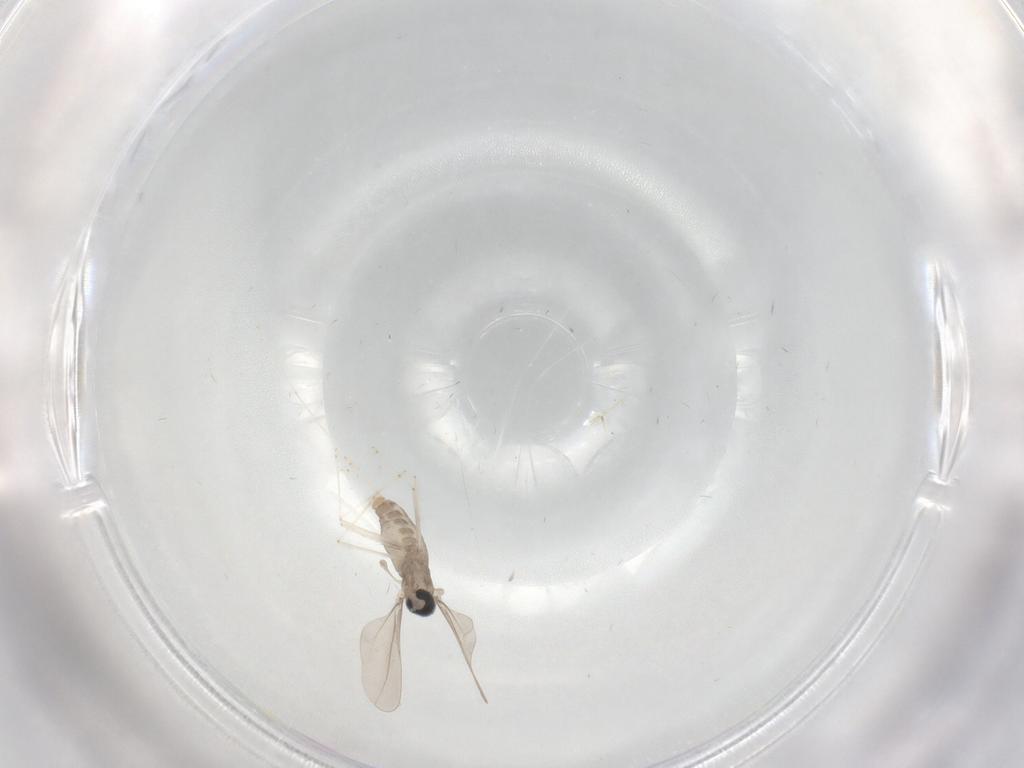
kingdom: Animalia
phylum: Arthropoda
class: Insecta
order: Diptera
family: Cecidomyiidae
